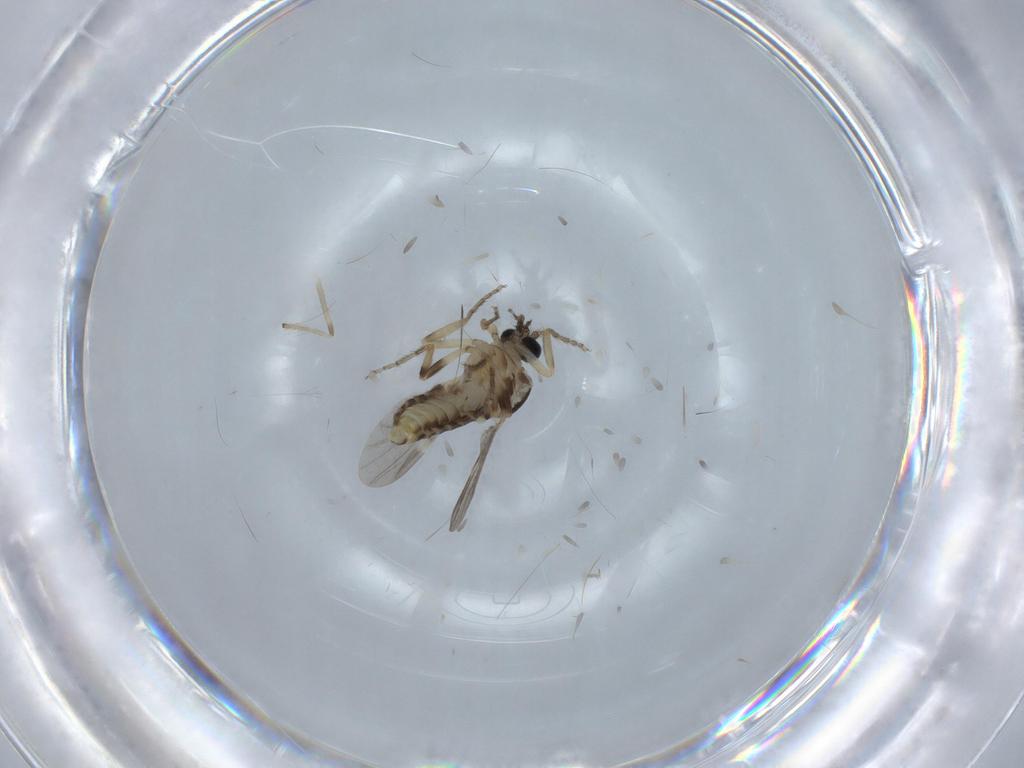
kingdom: Animalia
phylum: Arthropoda
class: Insecta
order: Diptera
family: Ceratopogonidae
